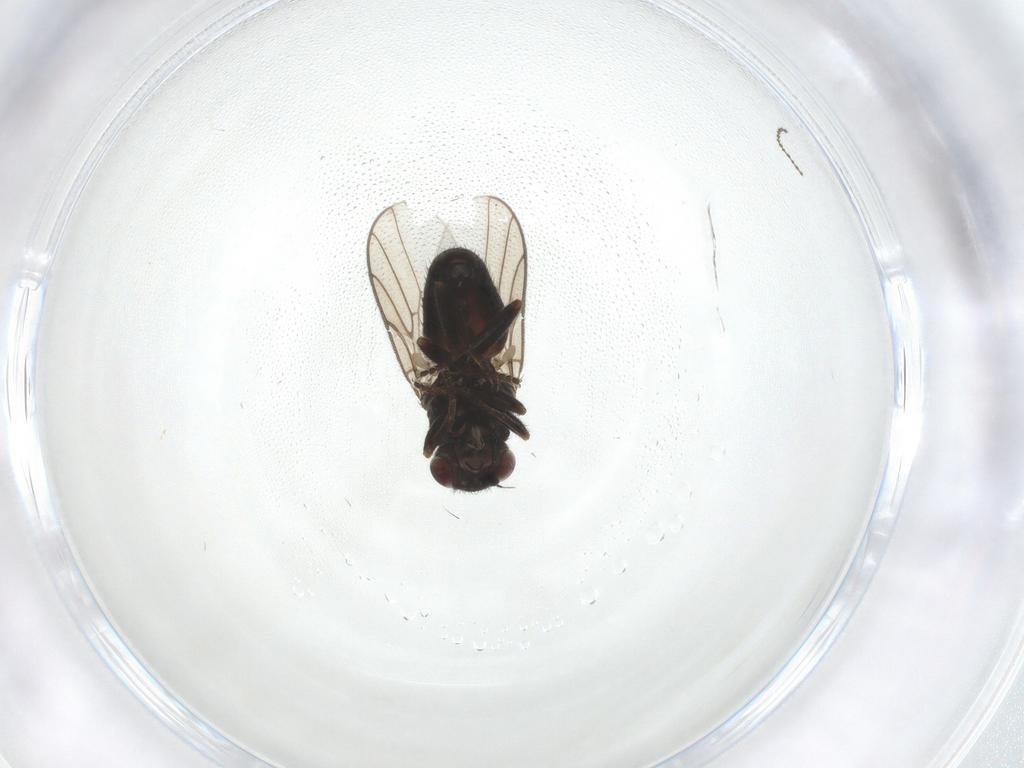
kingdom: Animalia
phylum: Arthropoda
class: Insecta
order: Diptera
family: Chloropidae
